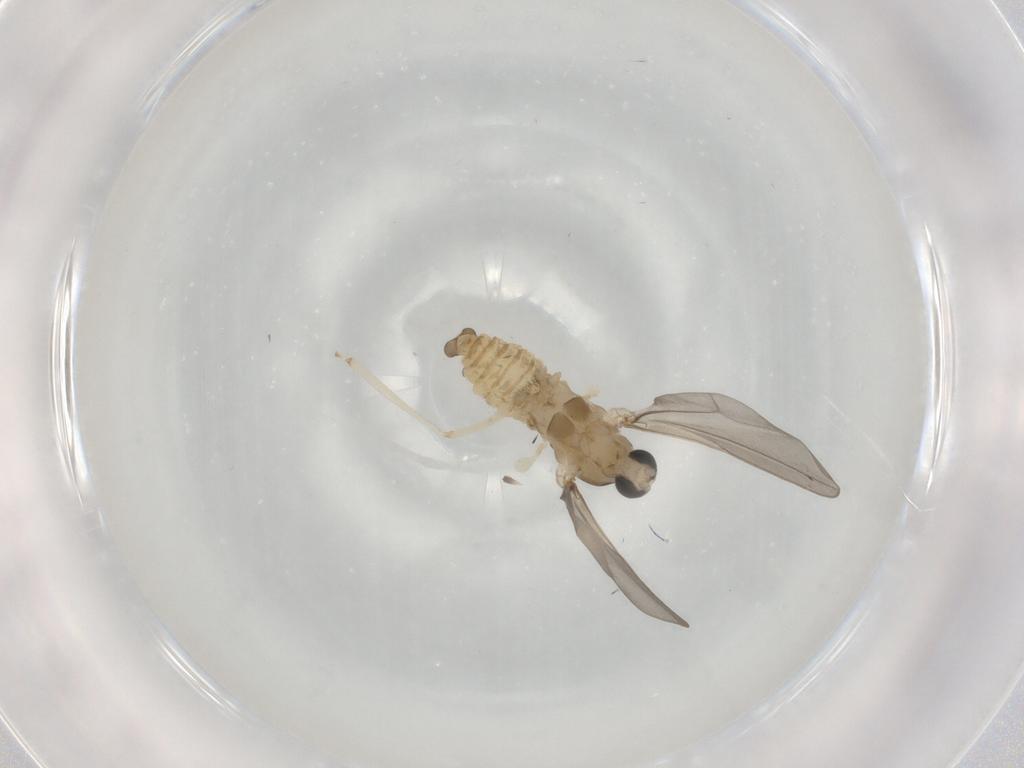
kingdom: Animalia
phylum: Arthropoda
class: Insecta
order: Diptera
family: Cecidomyiidae
